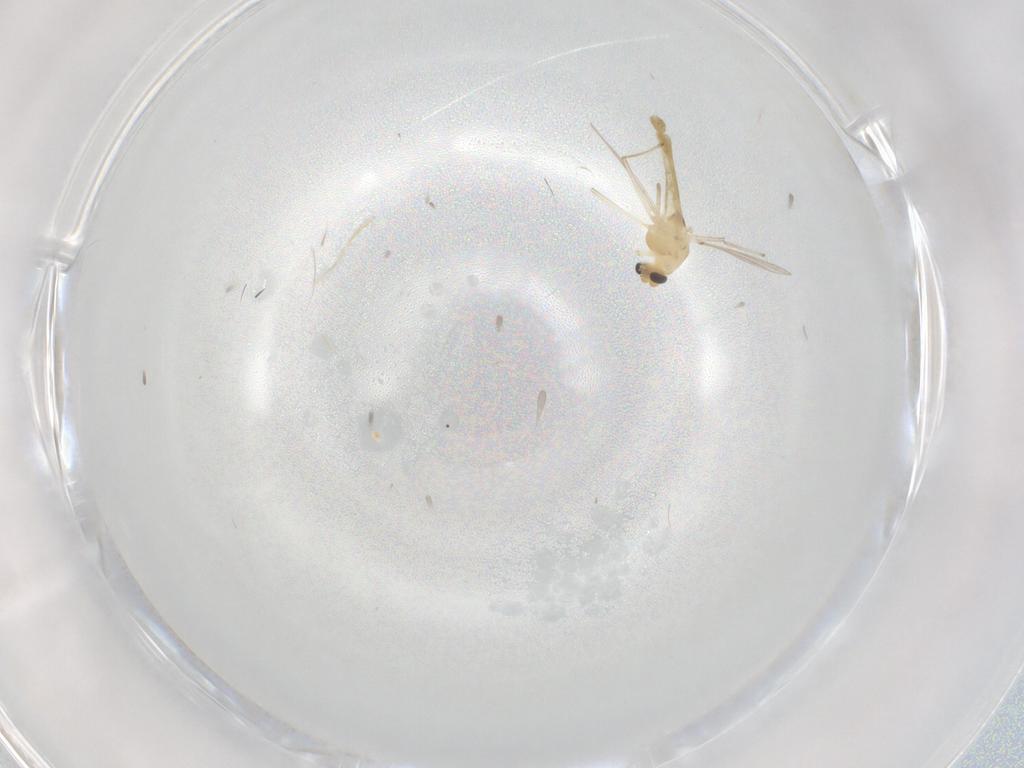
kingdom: Animalia
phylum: Arthropoda
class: Insecta
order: Diptera
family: Chironomidae
